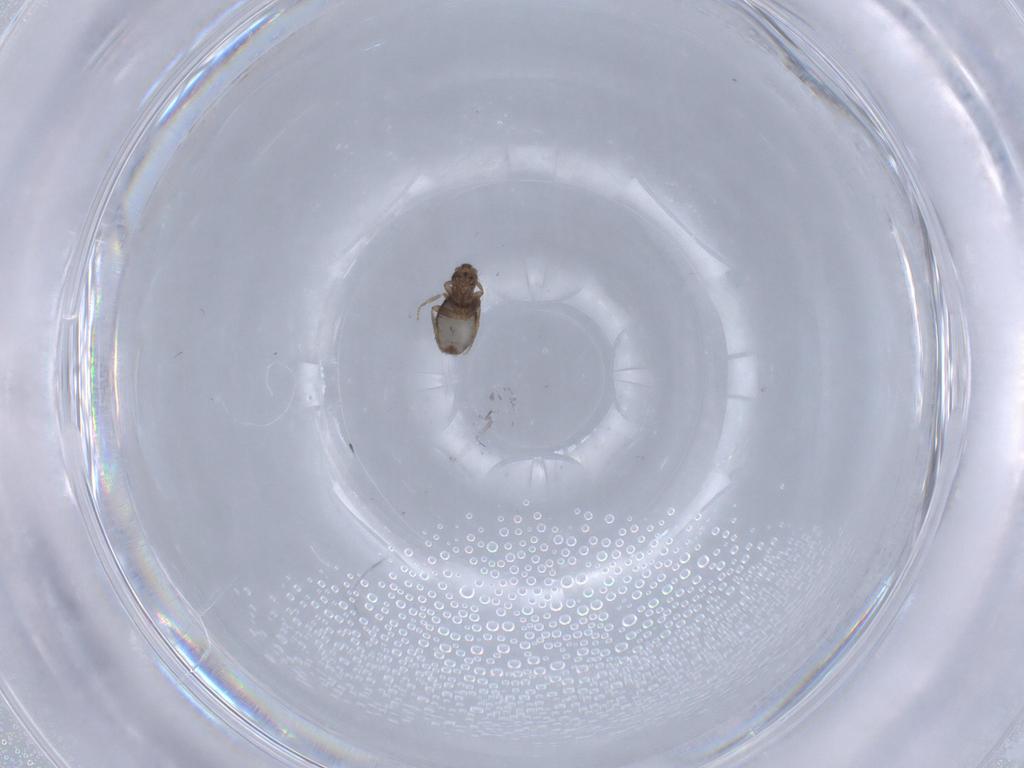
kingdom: Animalia
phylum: Arthropoda
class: Insecta
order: Diptera
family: Phoridae
